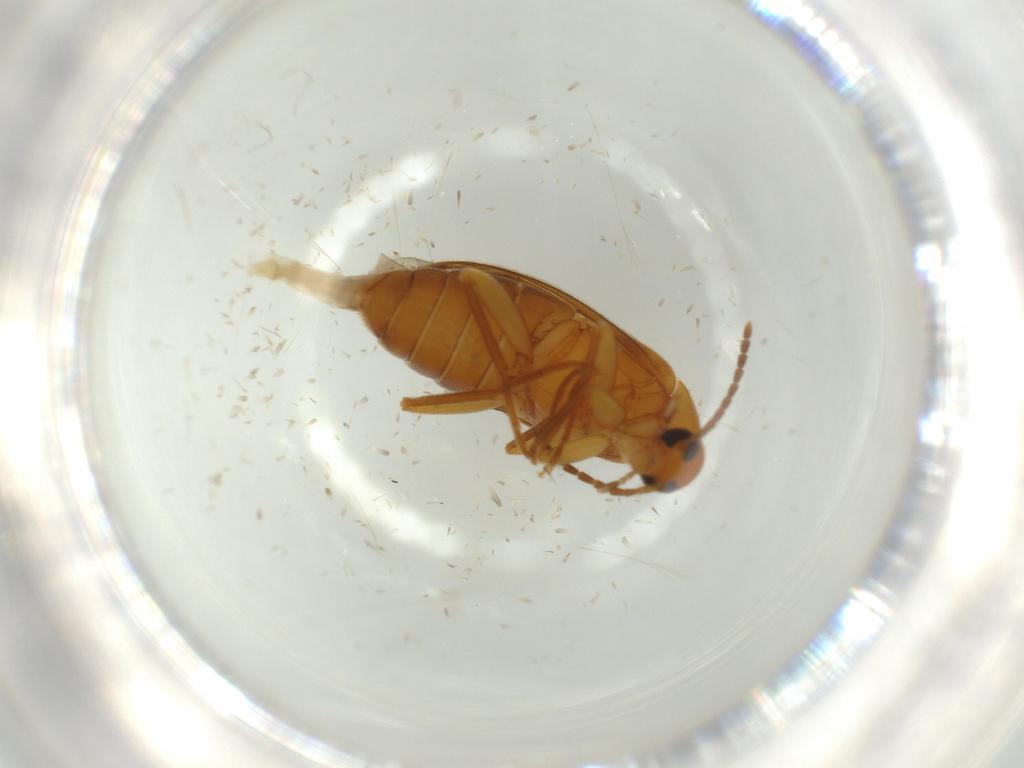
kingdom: Animalia
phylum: Arthropoda
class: Insecta
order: Coleoptera
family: Scraptiidae
